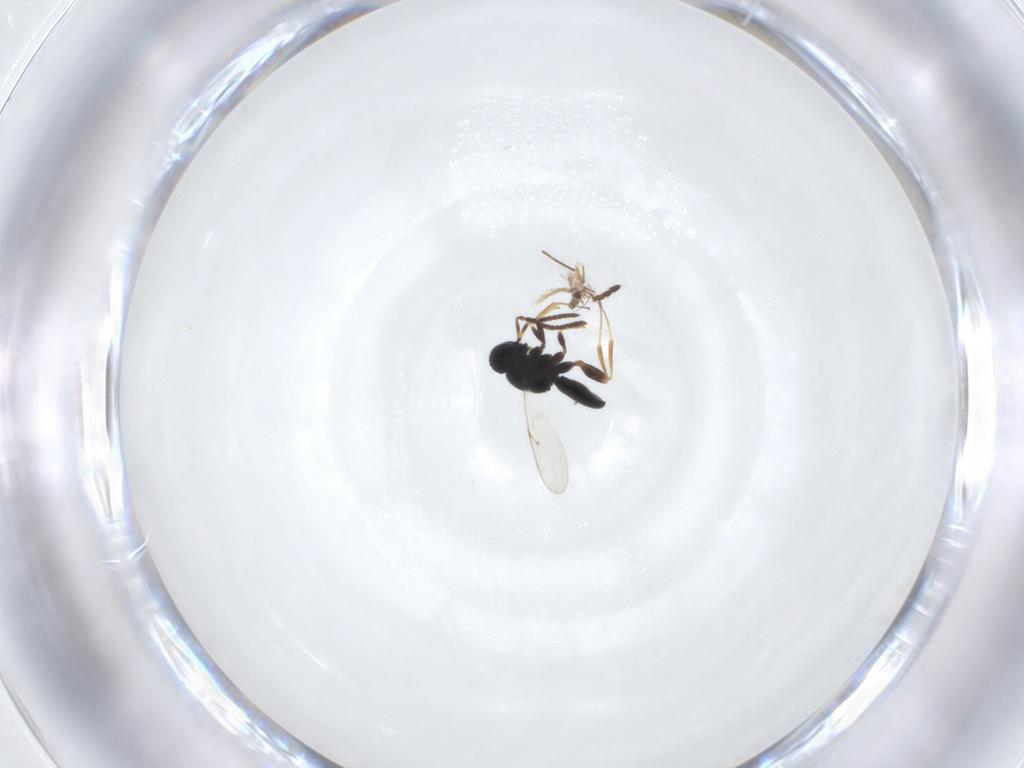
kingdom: Animalia
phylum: Arthropoda
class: Insecta
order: Hymenoptera
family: Scelionidae
